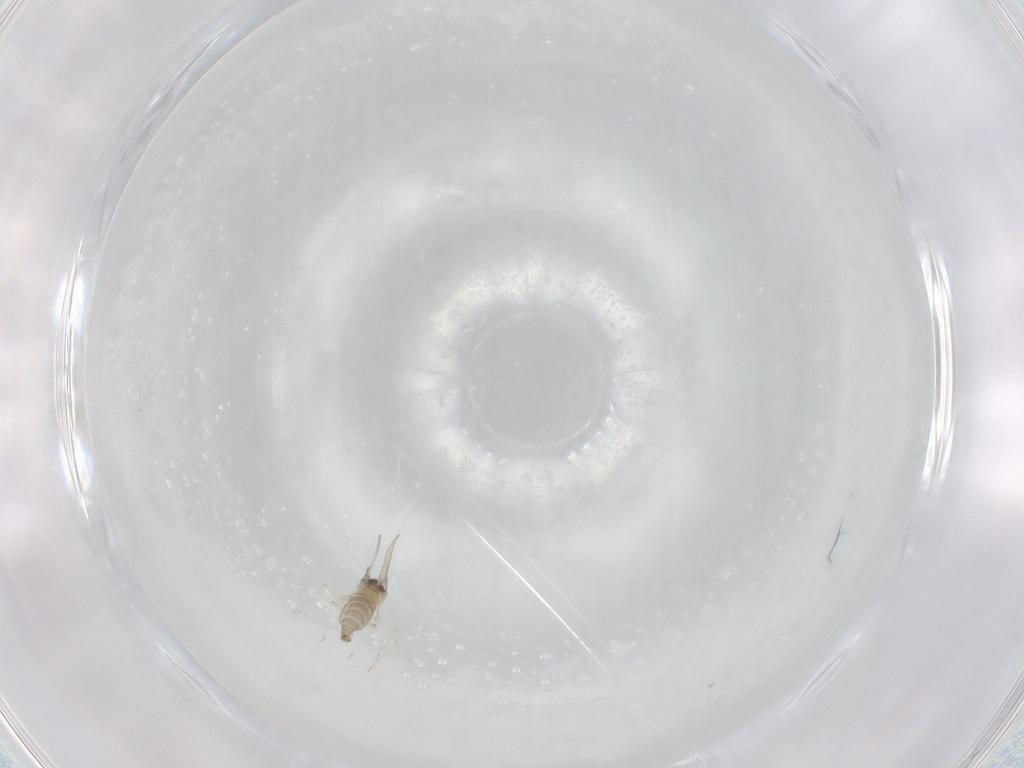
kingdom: Animalia
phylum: Arthropoda
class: Insecta
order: Diptera
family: Cecidomyiidae
